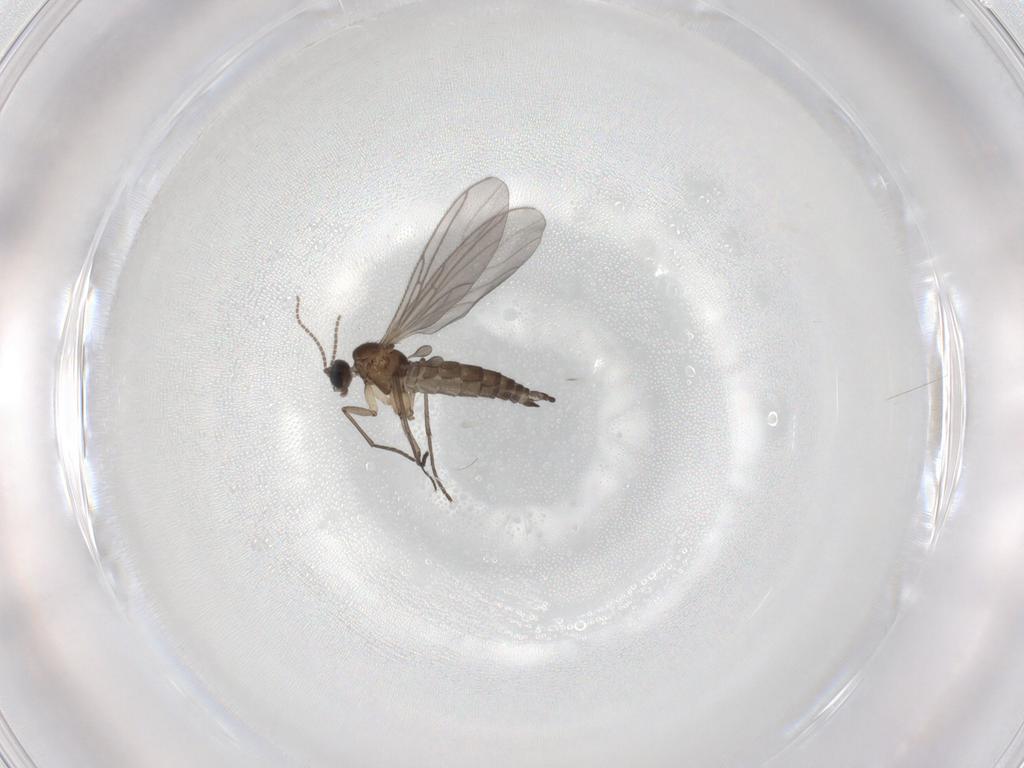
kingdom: Animalia
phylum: Arthropoda
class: Insecta
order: Diptera
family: Sciaridae
